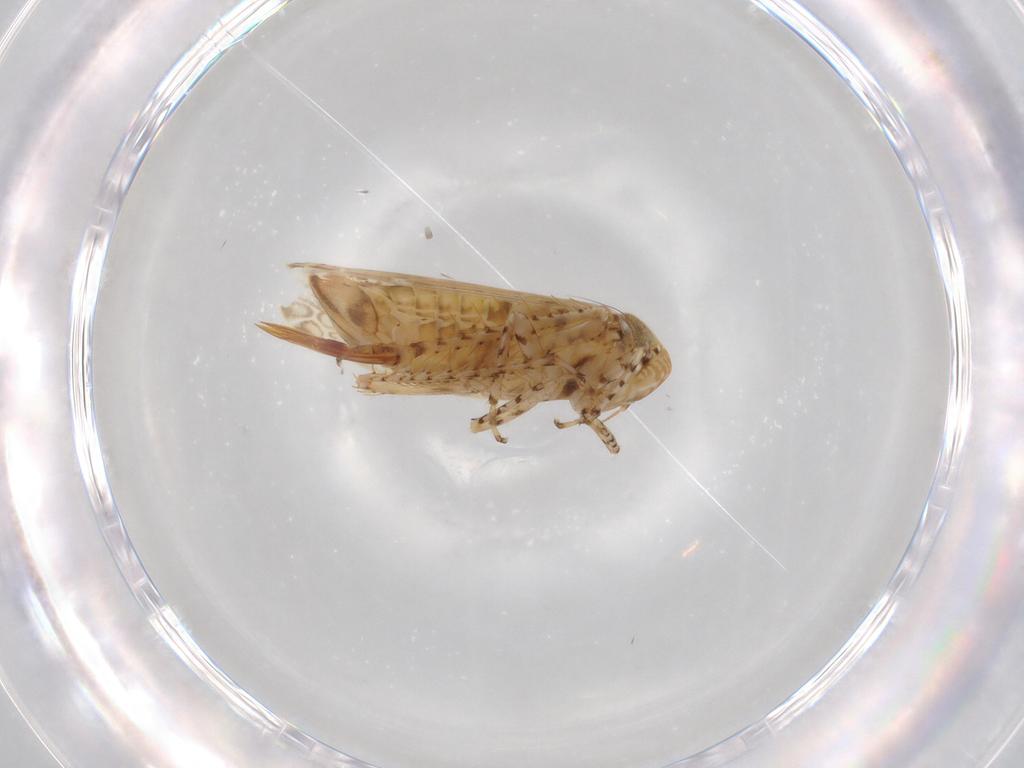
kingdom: Animalia
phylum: Arthropoda
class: Insecta
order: Hemiptera
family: Cicadellidae
